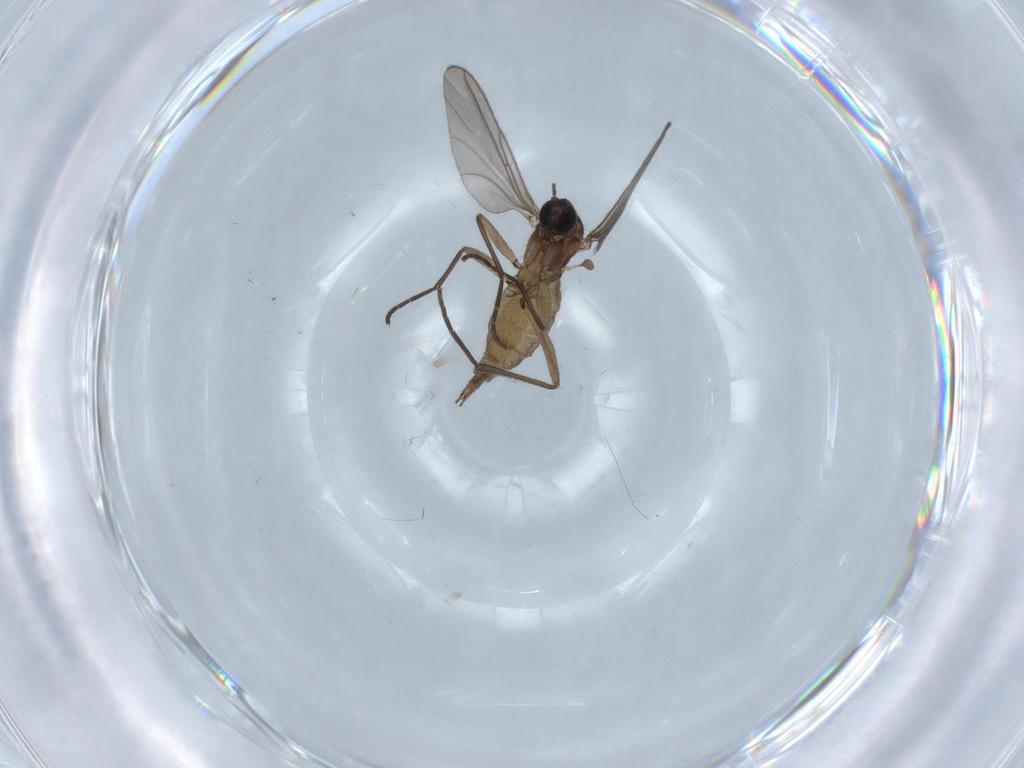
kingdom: Animalia
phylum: Arthropoda
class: Insecta
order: Diptera
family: Sciaridae
